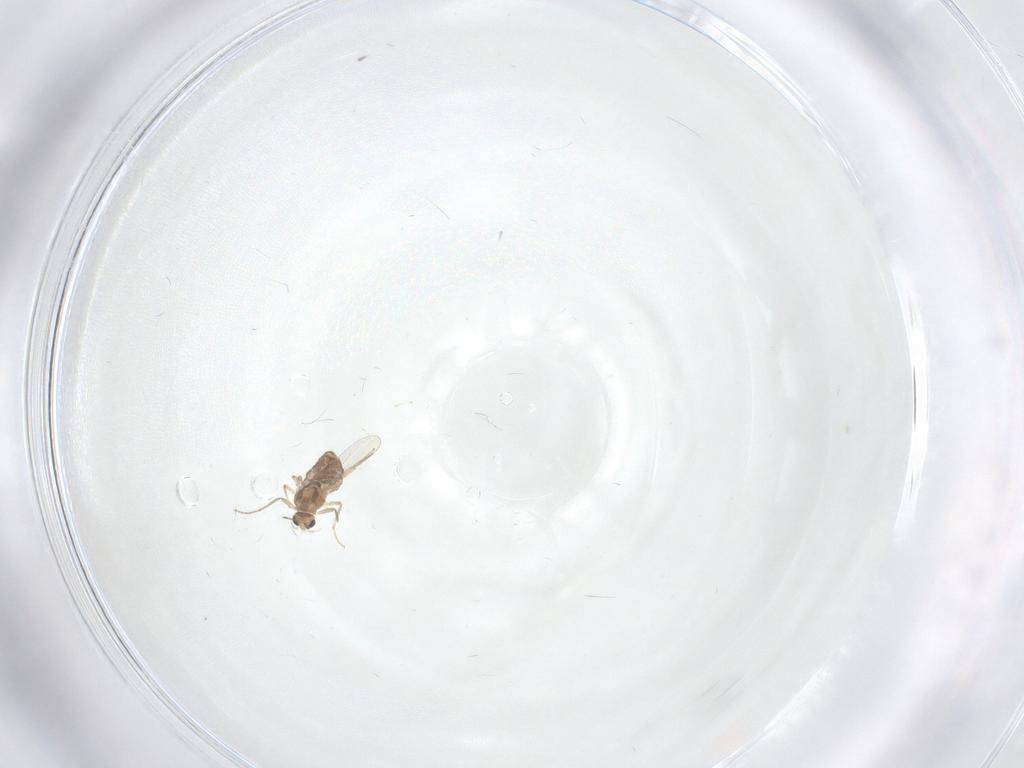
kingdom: Animalia
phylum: Arthropoda
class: Insecta
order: Diptera
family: Chironomidae
